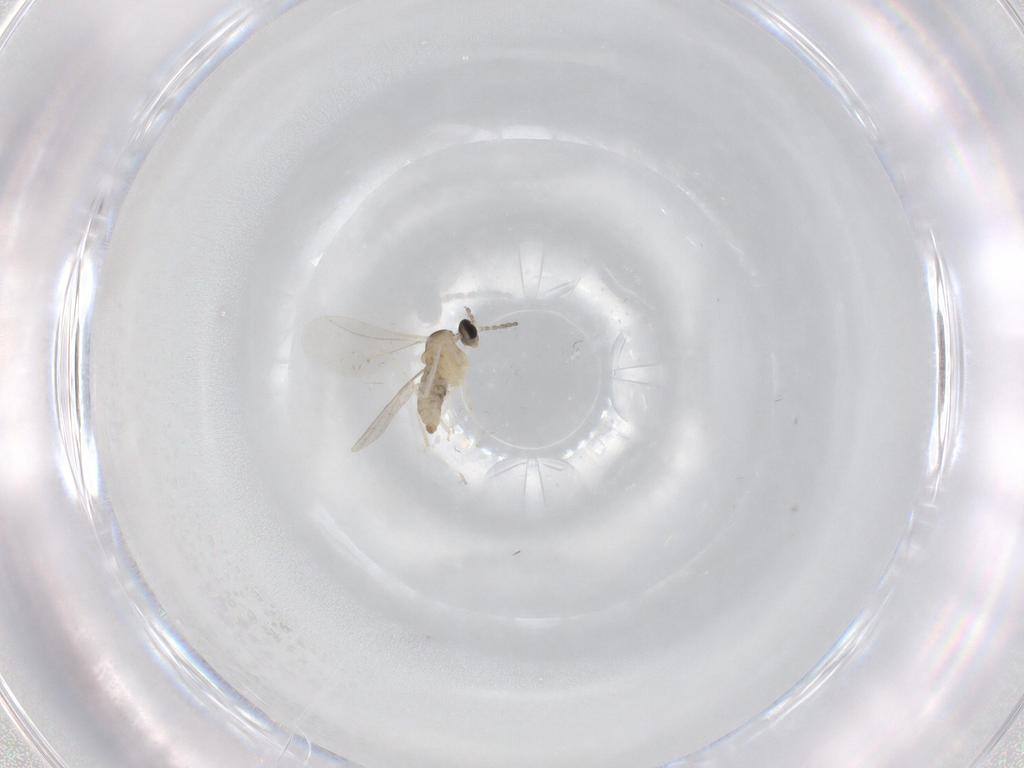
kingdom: Animalia
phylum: Arthropoda
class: Insecta
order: Diptera
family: Cecidomyiidae
